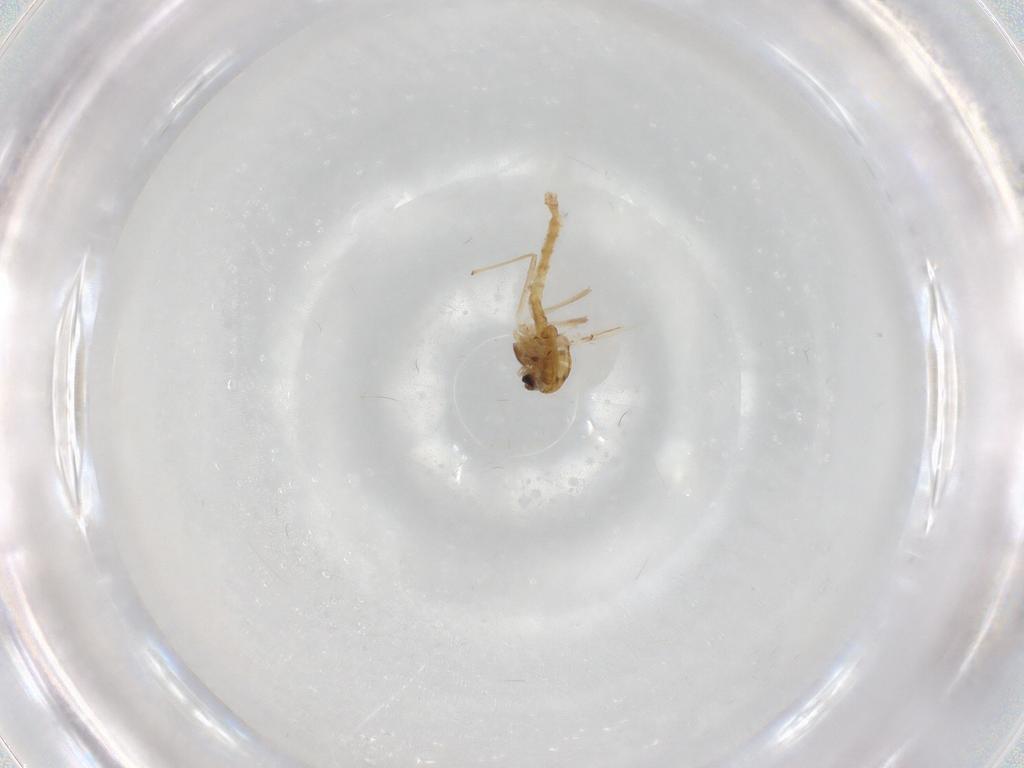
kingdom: Animalia
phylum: Arthropoda
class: Insecta
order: Diptera
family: Chironomidae
